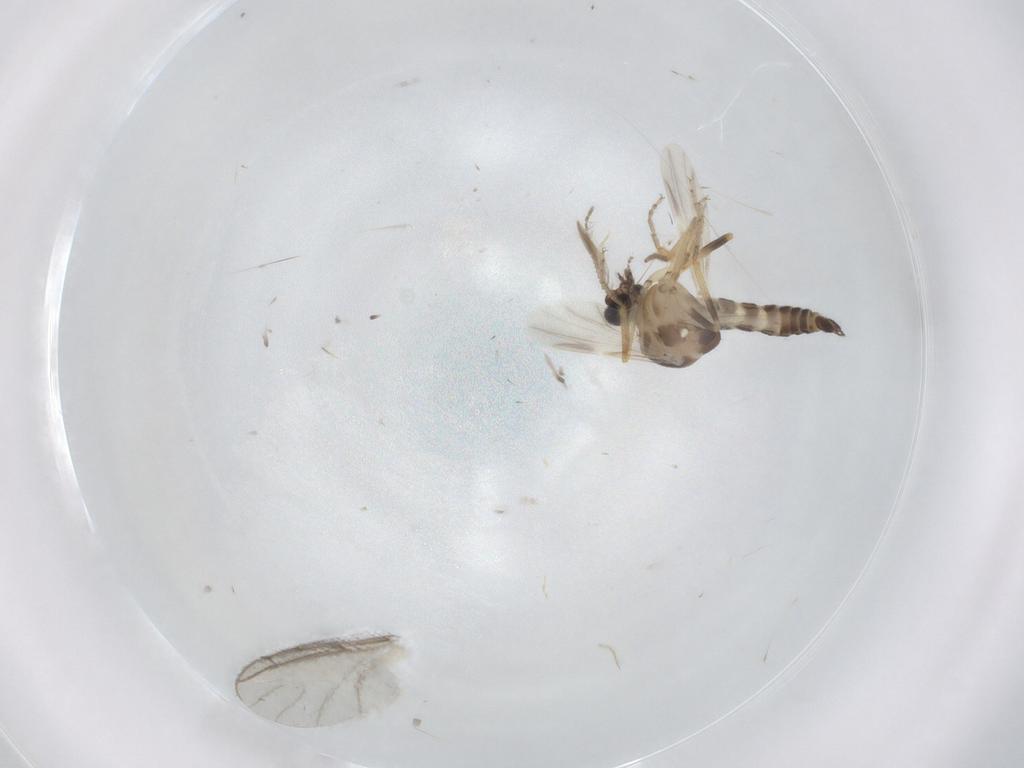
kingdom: Animalia
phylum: Arthropoda
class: Insecta
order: Diptera
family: Ceratopogonidae
